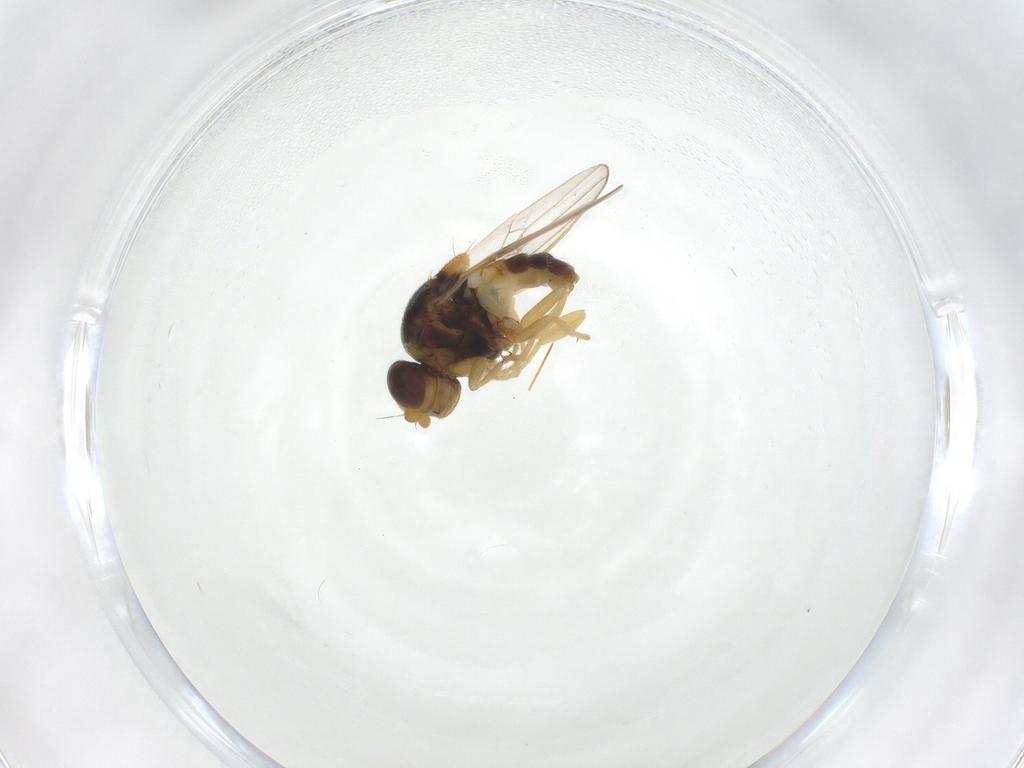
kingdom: Animalia
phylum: Arthropoda
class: Insecta
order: Diptera
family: Chloropidae
